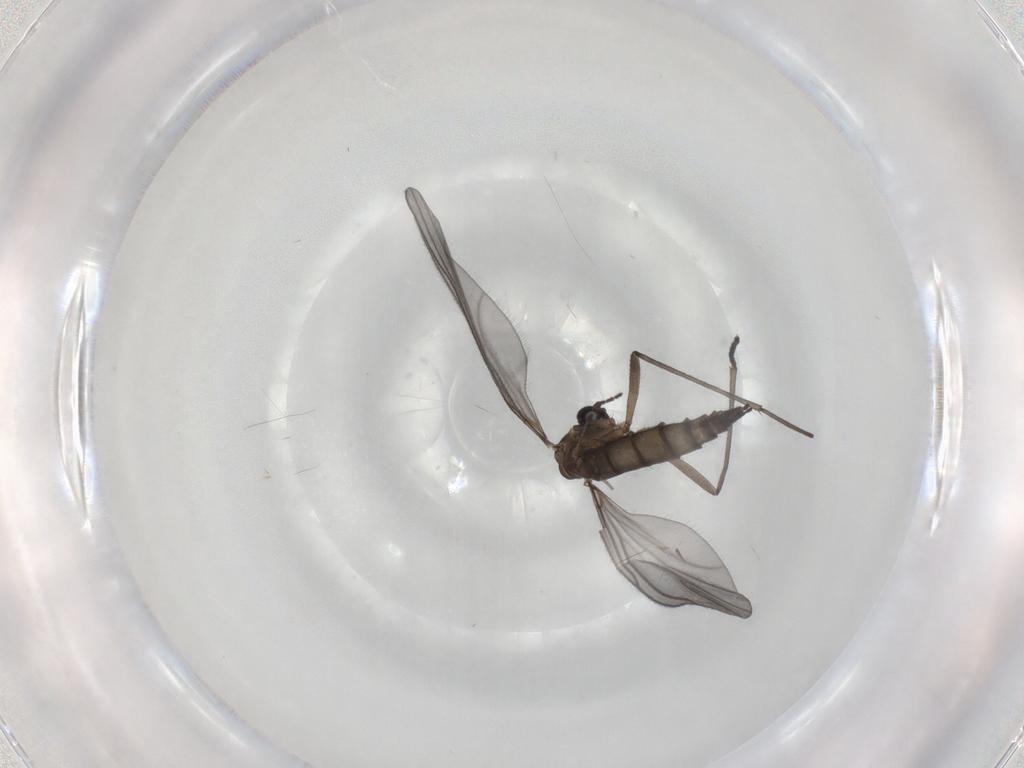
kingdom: Animalia
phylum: Arthropoda
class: Insecta
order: Diptera
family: Sciaridae
